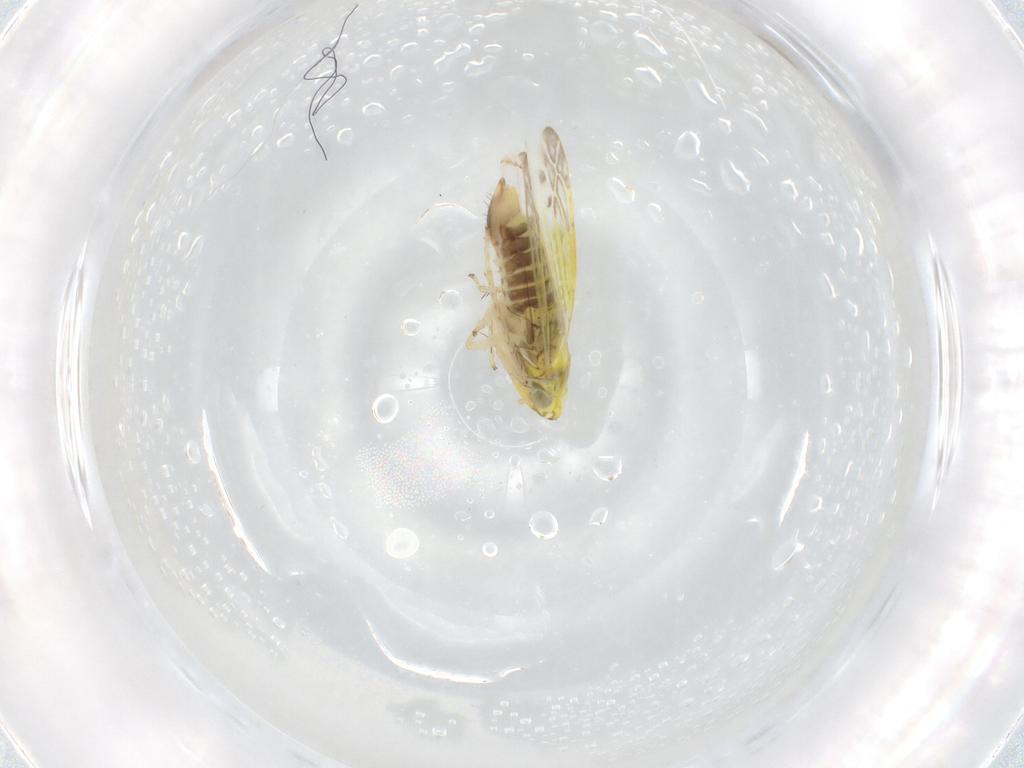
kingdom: Animalia
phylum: Arthropoda
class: Insecta
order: Hemiptera
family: Cicadellidae
